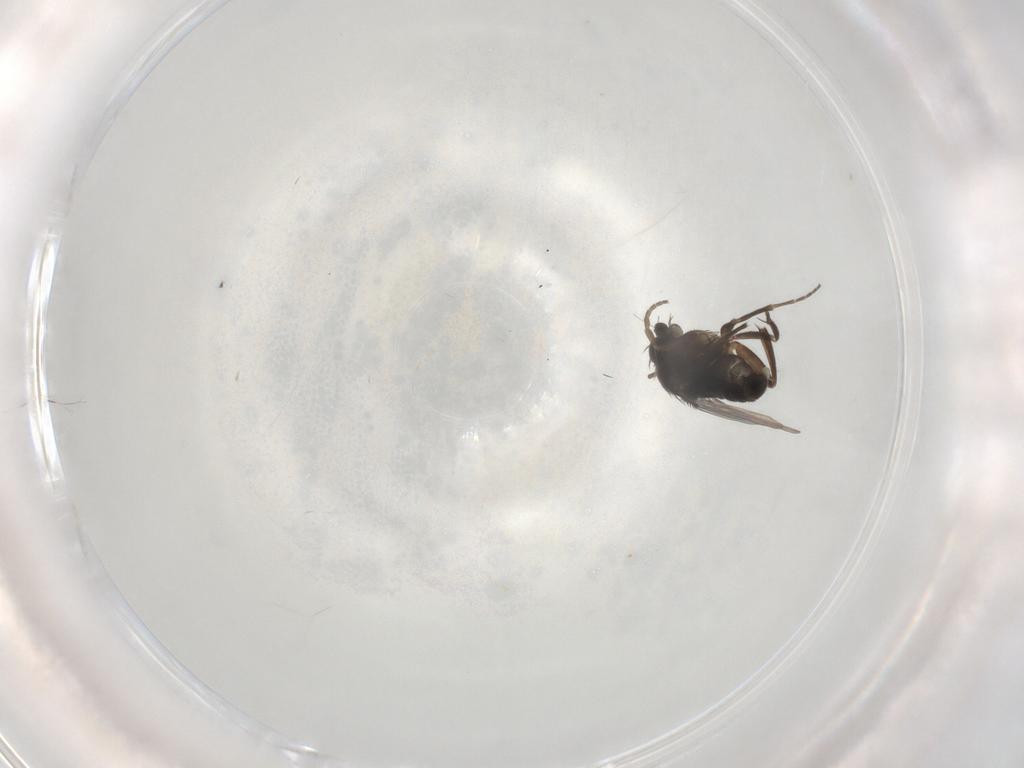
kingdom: Animalia
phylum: Arthropoda
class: Insecta
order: Diptera
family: Phoridae
